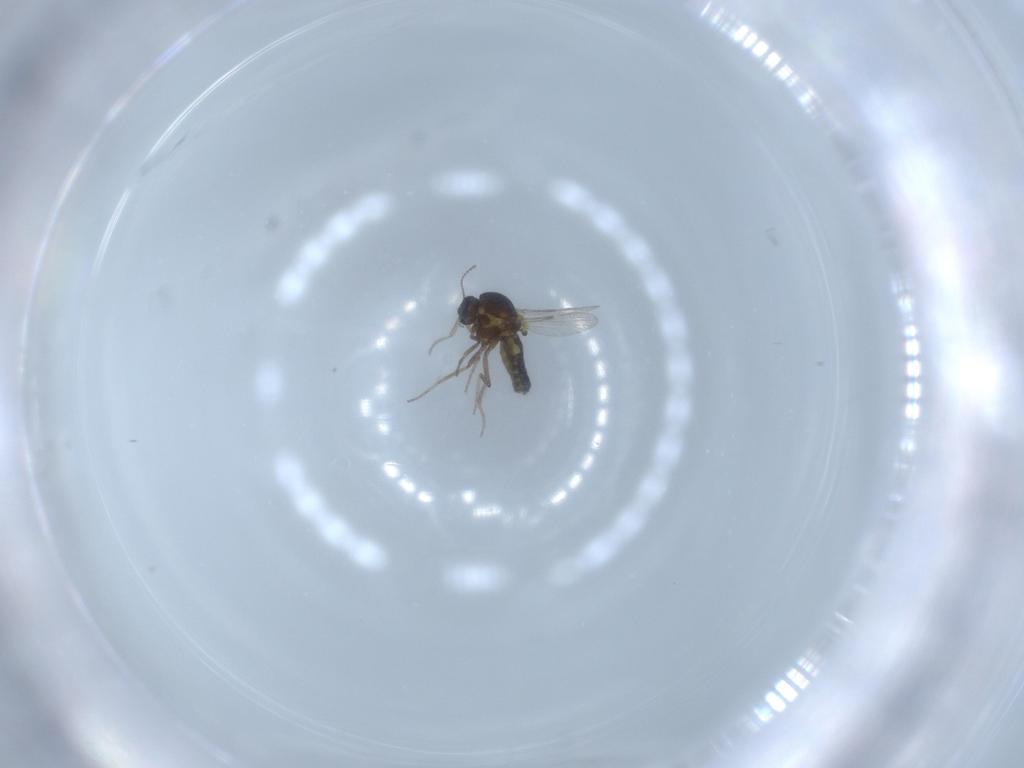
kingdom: Animalia
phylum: Arthropoda
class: Insecta
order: Diptera
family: Ceratopogonidae
